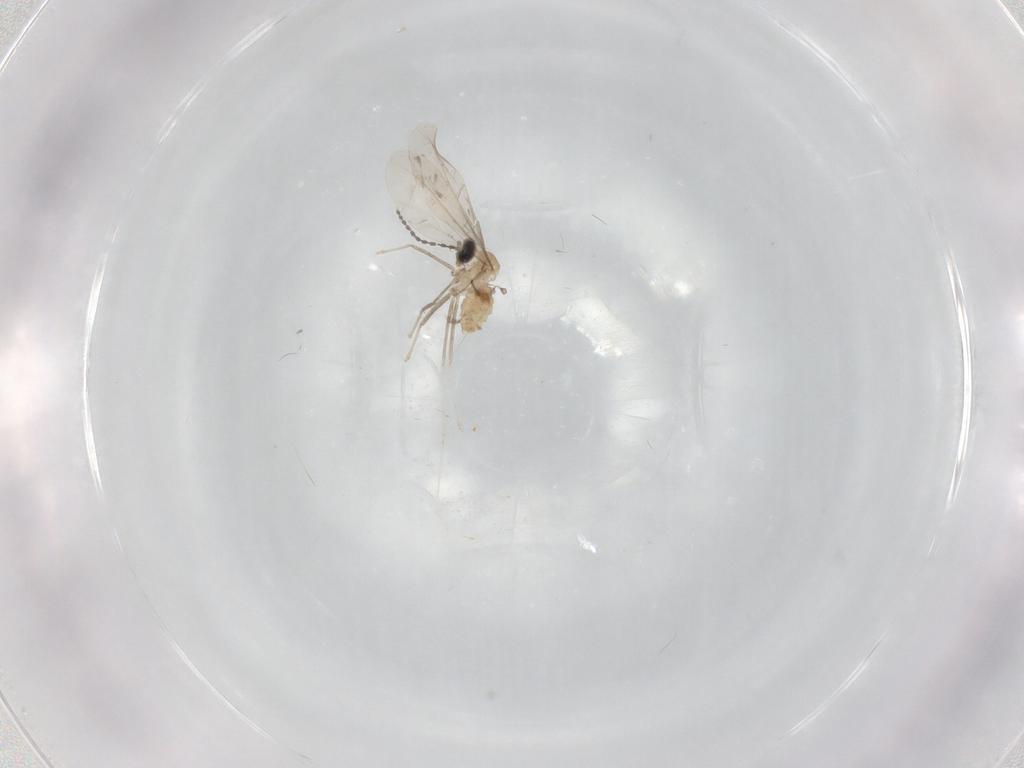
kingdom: Animalia
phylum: Arthropoda
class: Insecta
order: Diptera
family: Cecidomyiidae
